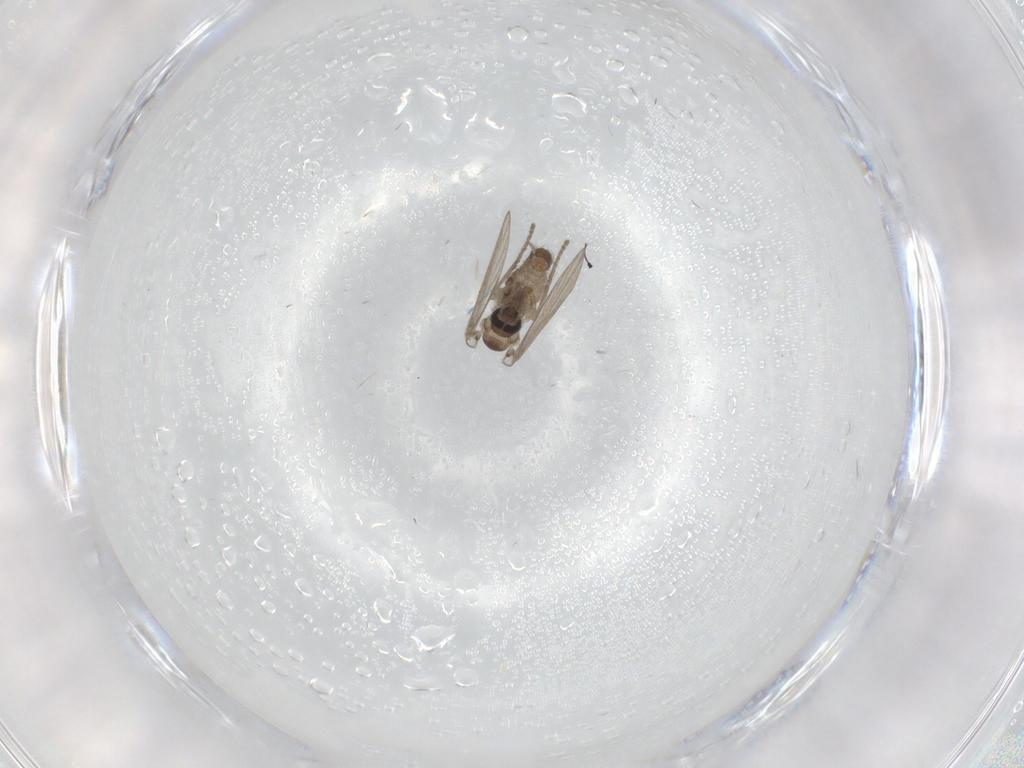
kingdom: Animalia
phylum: Arthropoda
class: Insecta
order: Diptera
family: Psychodidae
